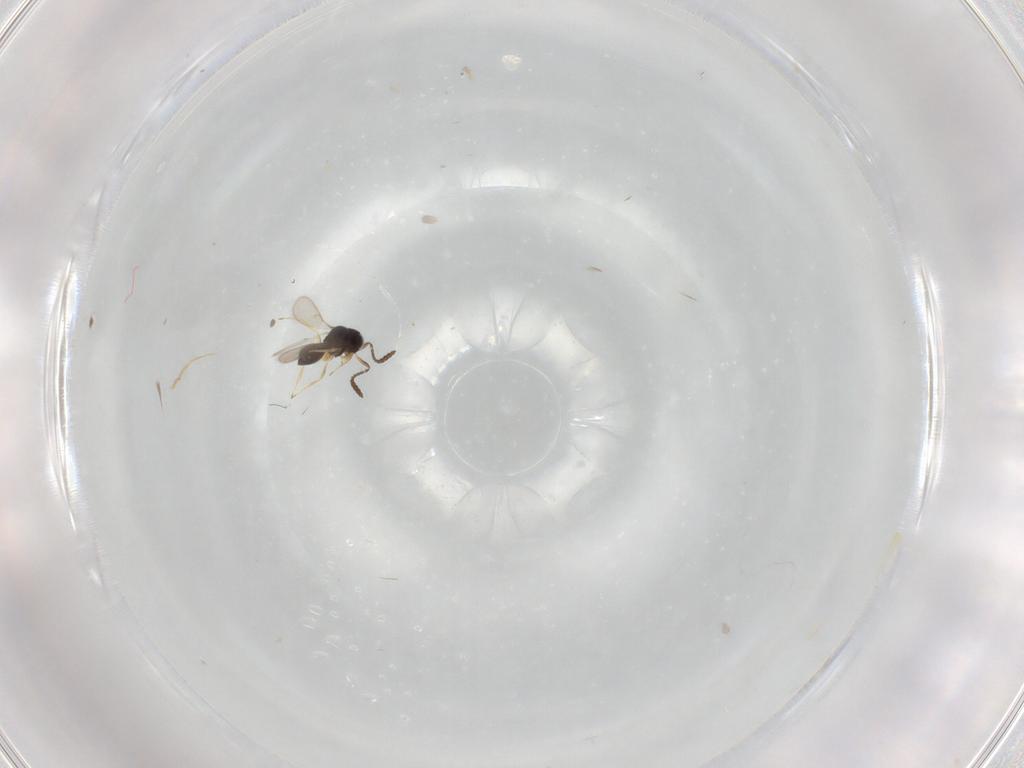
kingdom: Animalia
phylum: Arthropoda
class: Insecta
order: Hymenoptera
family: Scelionidae
